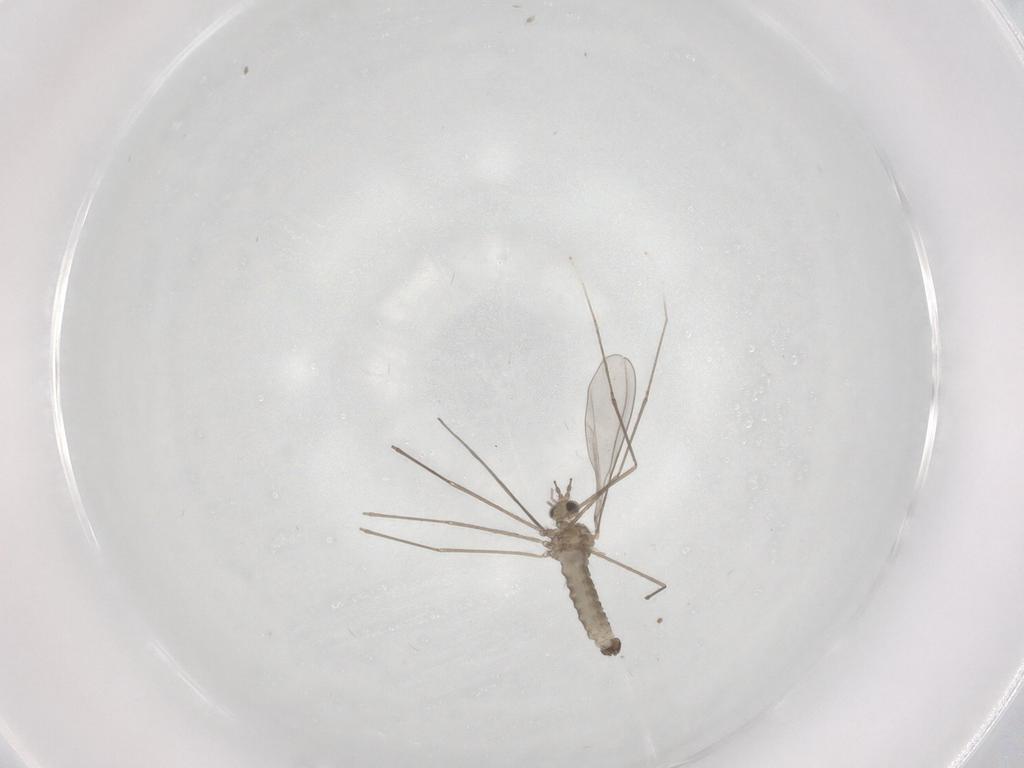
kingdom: Animalia
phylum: Arthropoda
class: Insecta
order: Diptera
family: Cecidomyiidae
